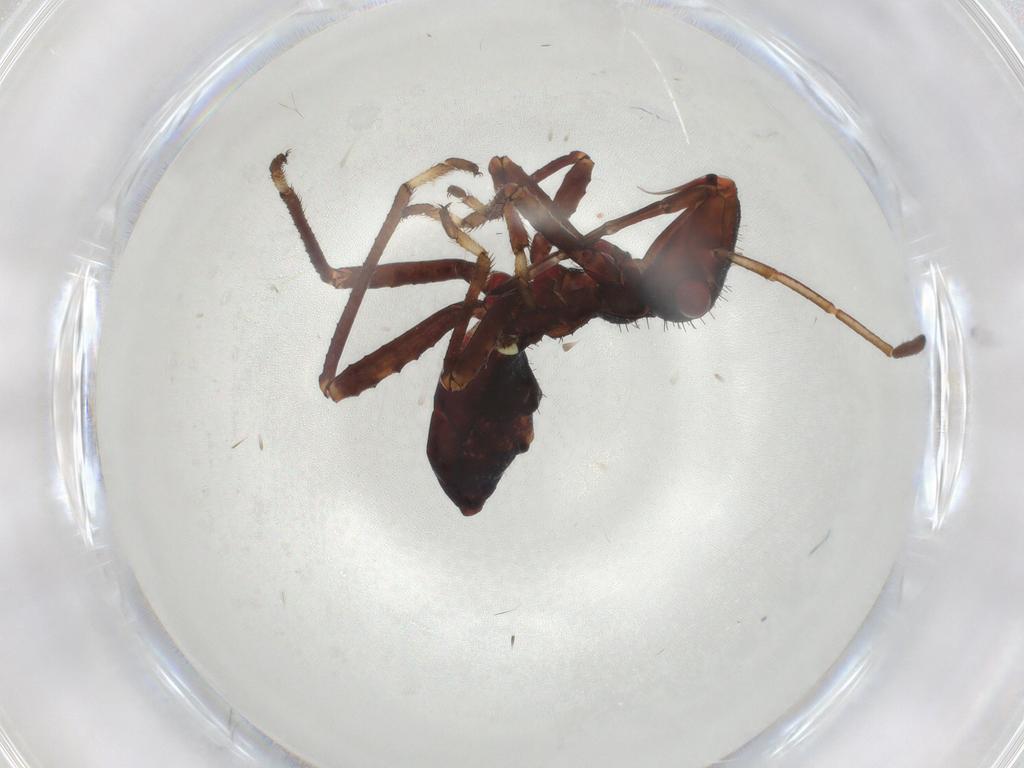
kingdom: Animalia
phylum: Arthropoda
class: Insecta
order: Hemiptera
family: Alydidae
